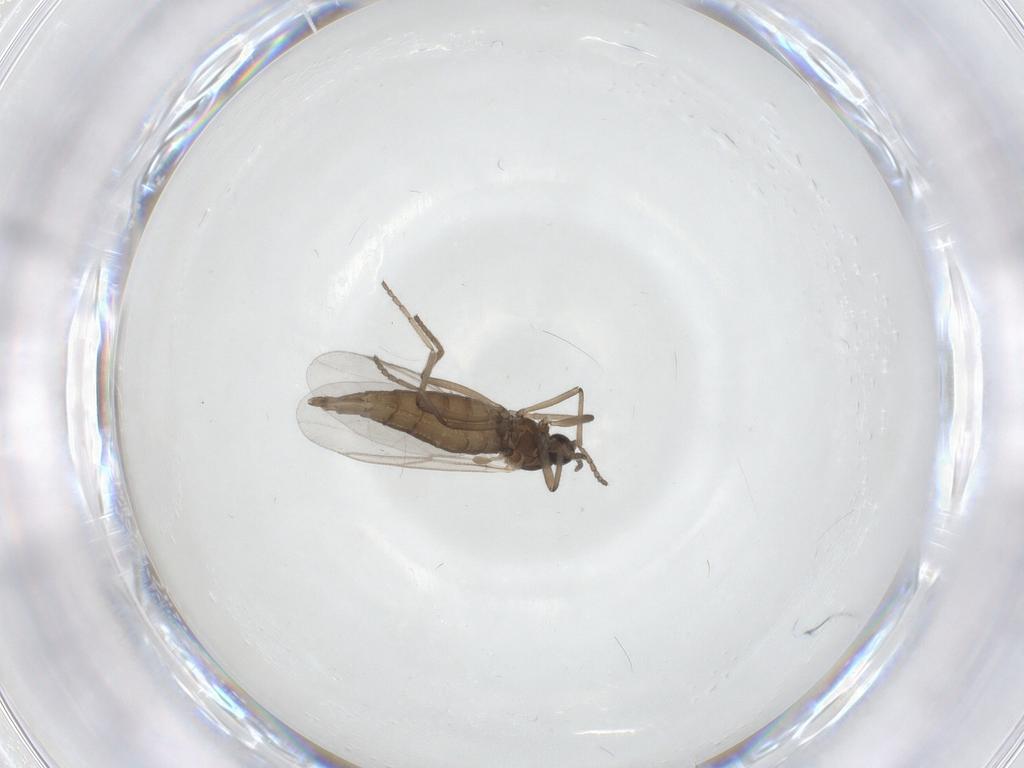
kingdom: Animalia
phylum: Arthropoda
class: Insecta
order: Diptera
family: Cecidomyiidae
